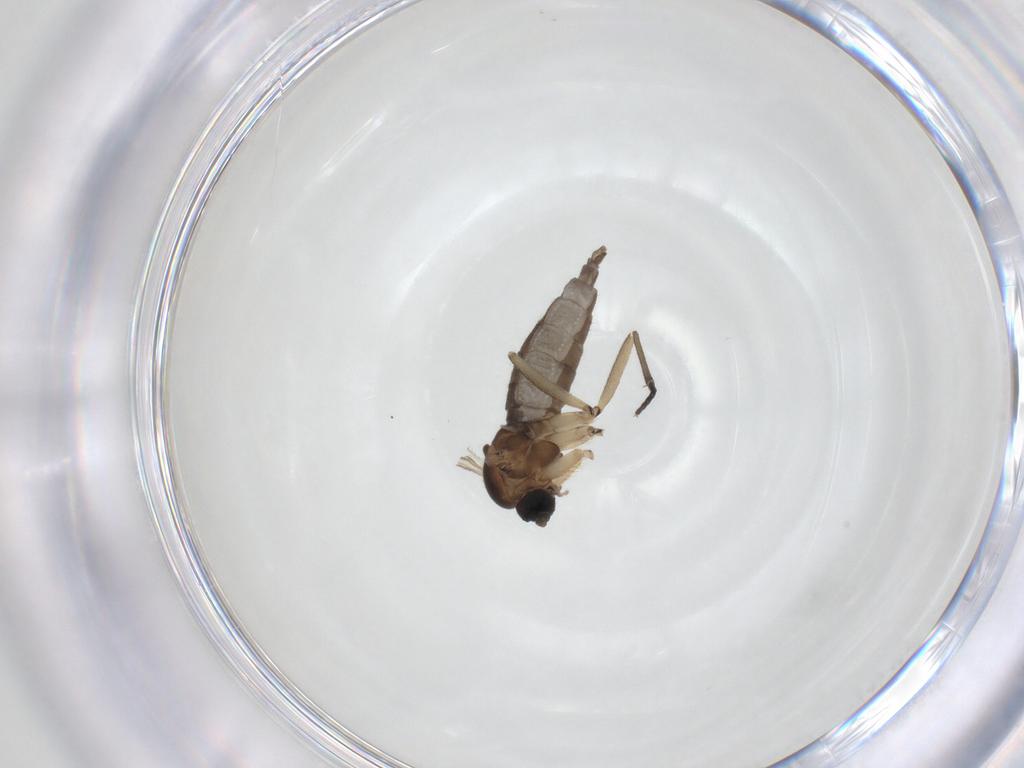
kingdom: Animalia
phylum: Arthropoda
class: Insecta
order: Diptera
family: Sciaridae
